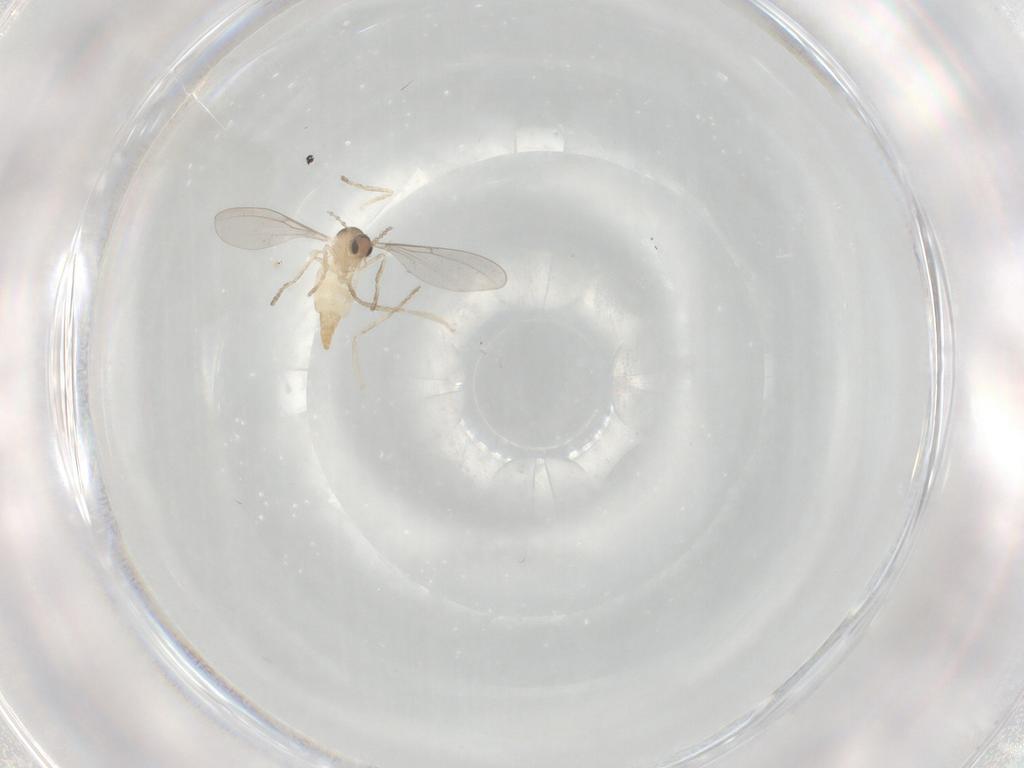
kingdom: Animalia
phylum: Arthropoda
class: Insecta
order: Diptera
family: Cecidomyiidae
